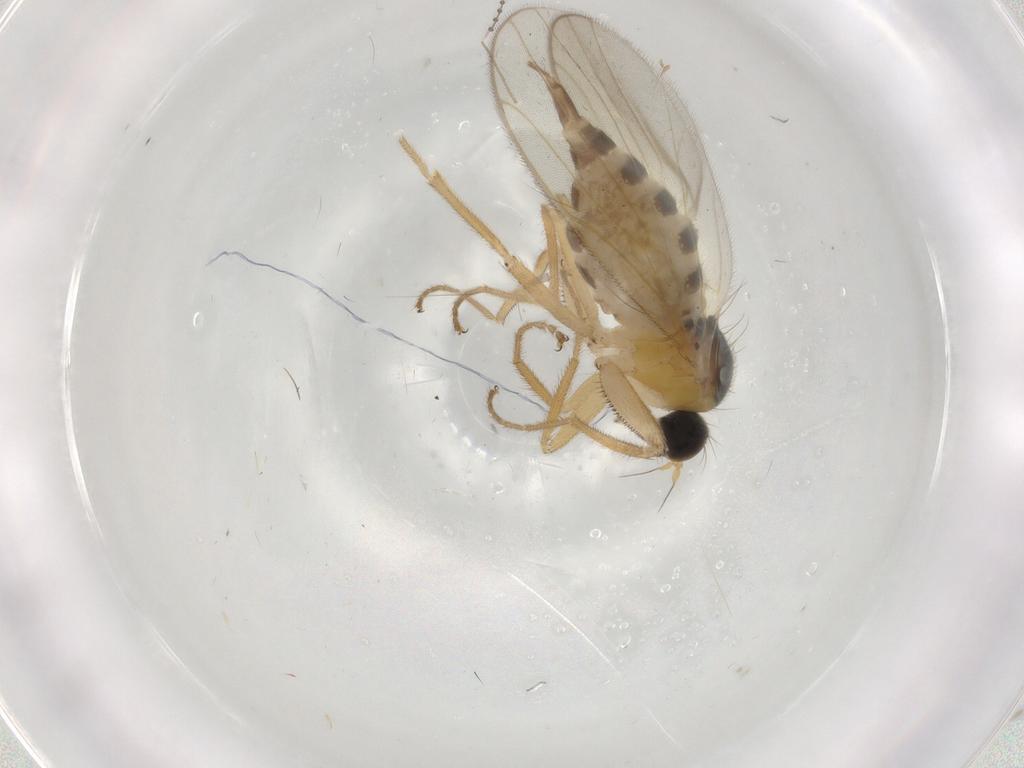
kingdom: Animalia
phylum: Arthropoda
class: Insecta
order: Diptera
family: Hybotidae
